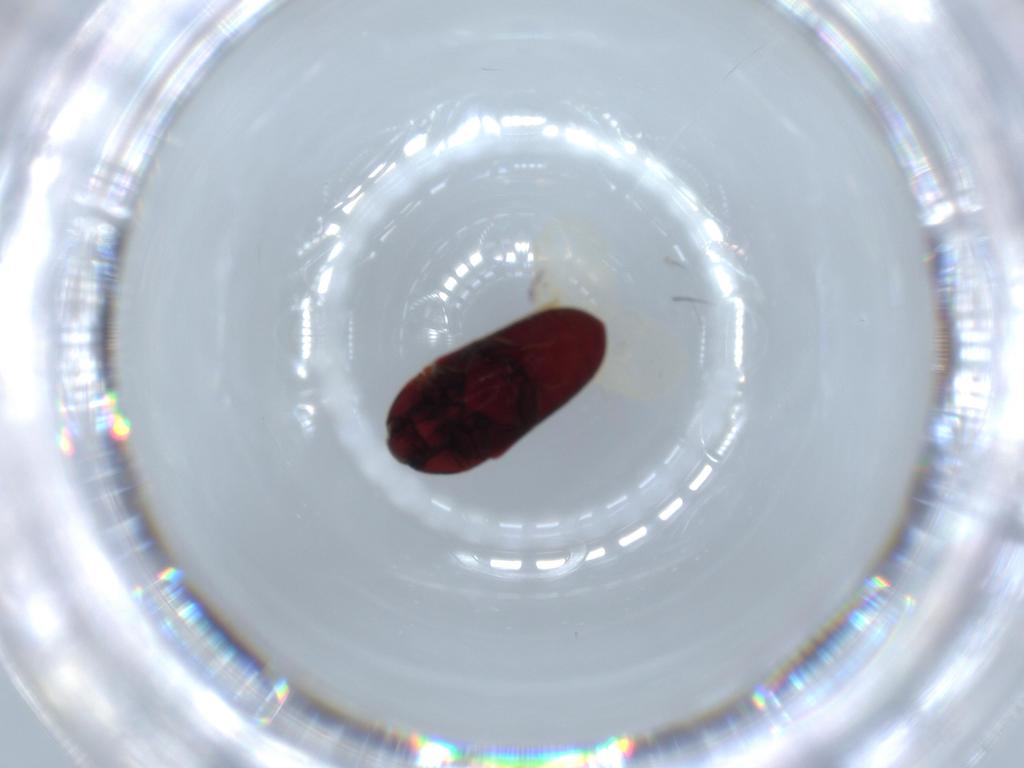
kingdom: Animalia
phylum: Arthropoda
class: Insecta
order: Coleoptera
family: Throscidae
